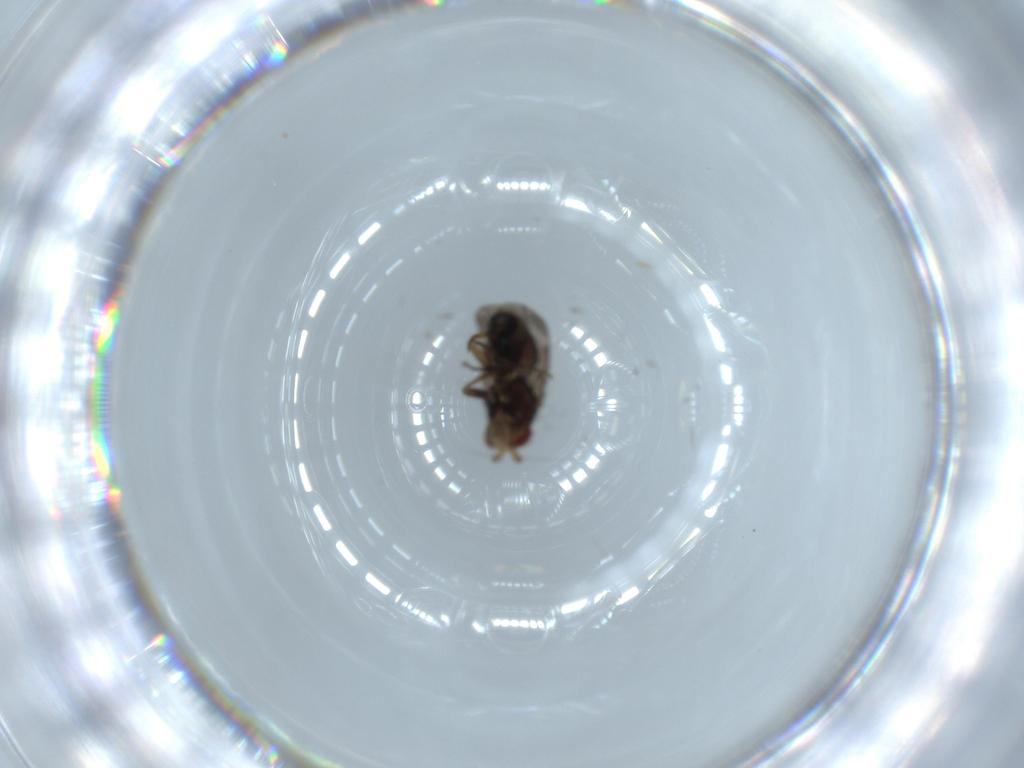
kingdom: Animalia
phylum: Arthropoda
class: Insecta
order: Diptera
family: Sphaeroceridae
